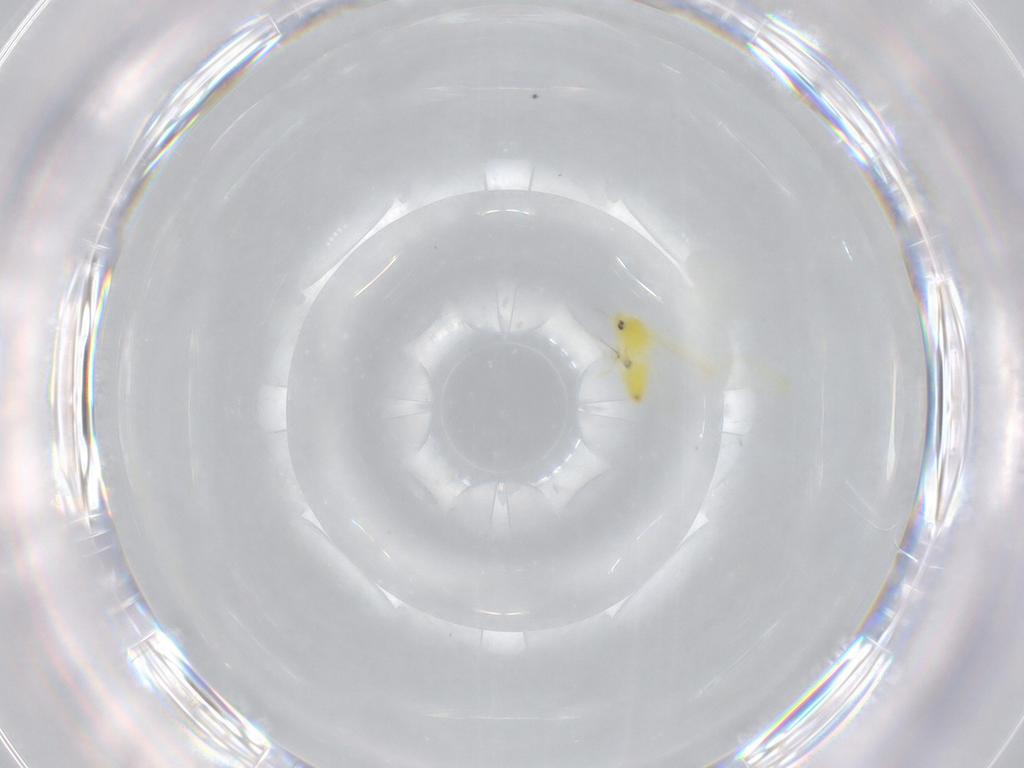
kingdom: Animalia
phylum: Arthropoda
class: Insecta
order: Hemiptera
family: Aleyrodidae
